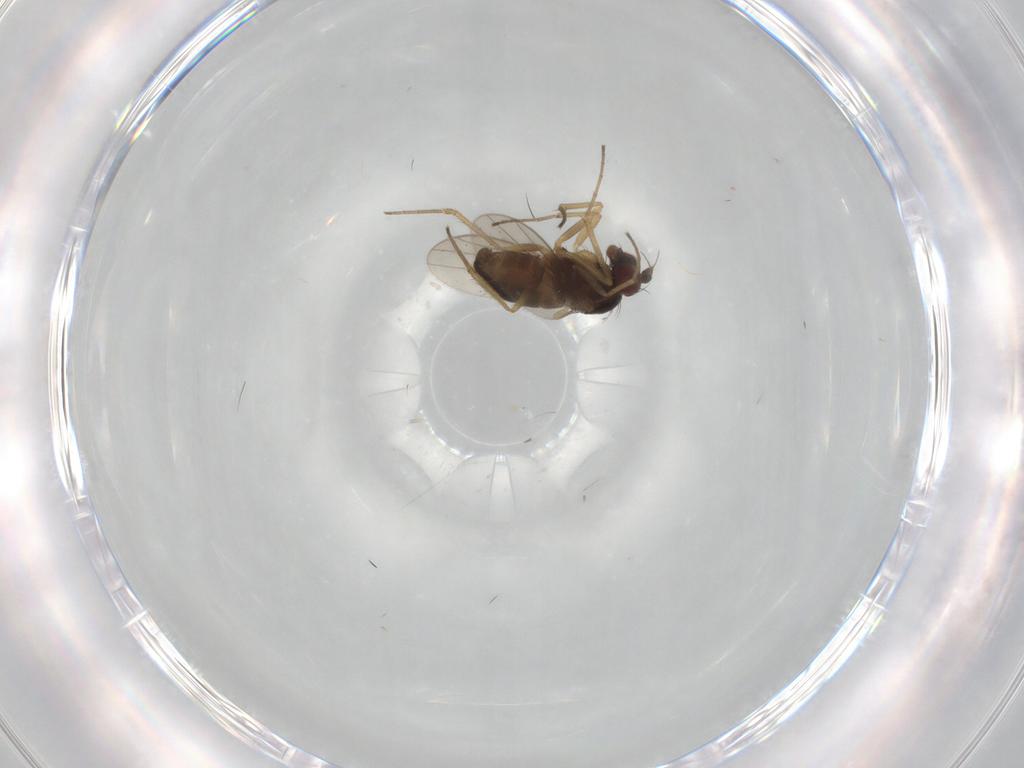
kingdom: Animalia
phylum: Arthropoda
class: Insecta
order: Diptera
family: Dolichopodidae
